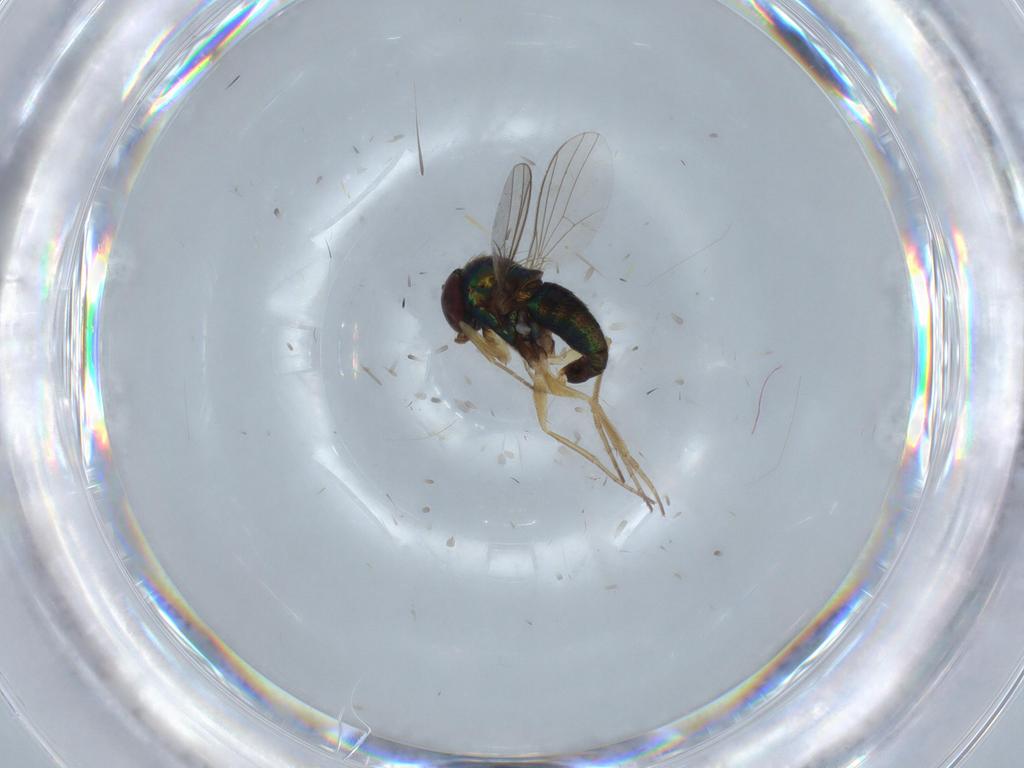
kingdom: Animalia
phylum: Arthropoda
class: Insecta
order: Diptera
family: Dolichopodidae
